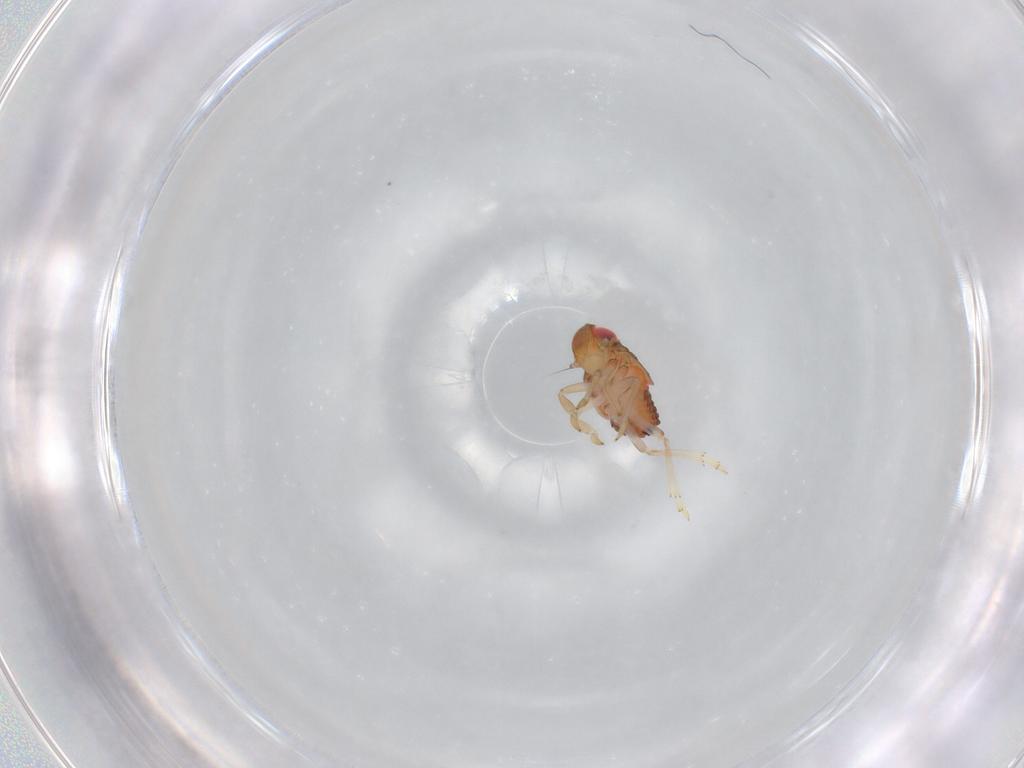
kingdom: Animalia
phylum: Arthropoda
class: Insecta
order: Hemiptera
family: Issidae
